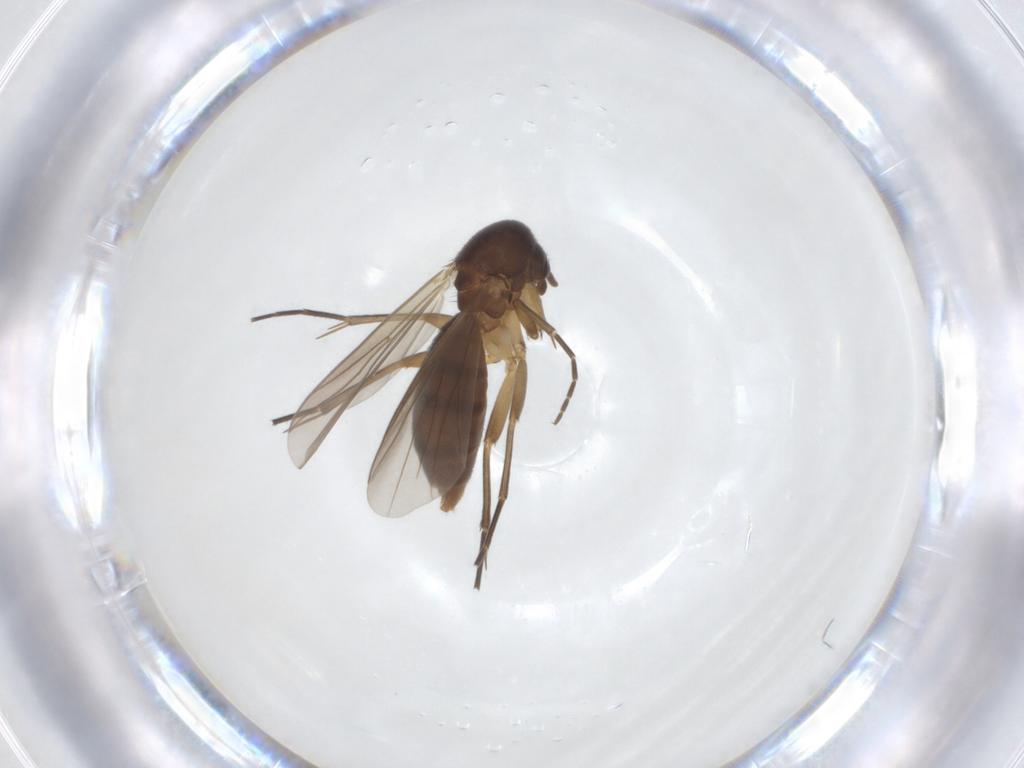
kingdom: Animalia
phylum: Arthropoda
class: Insecta
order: Diptera
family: Mycetophilidae
